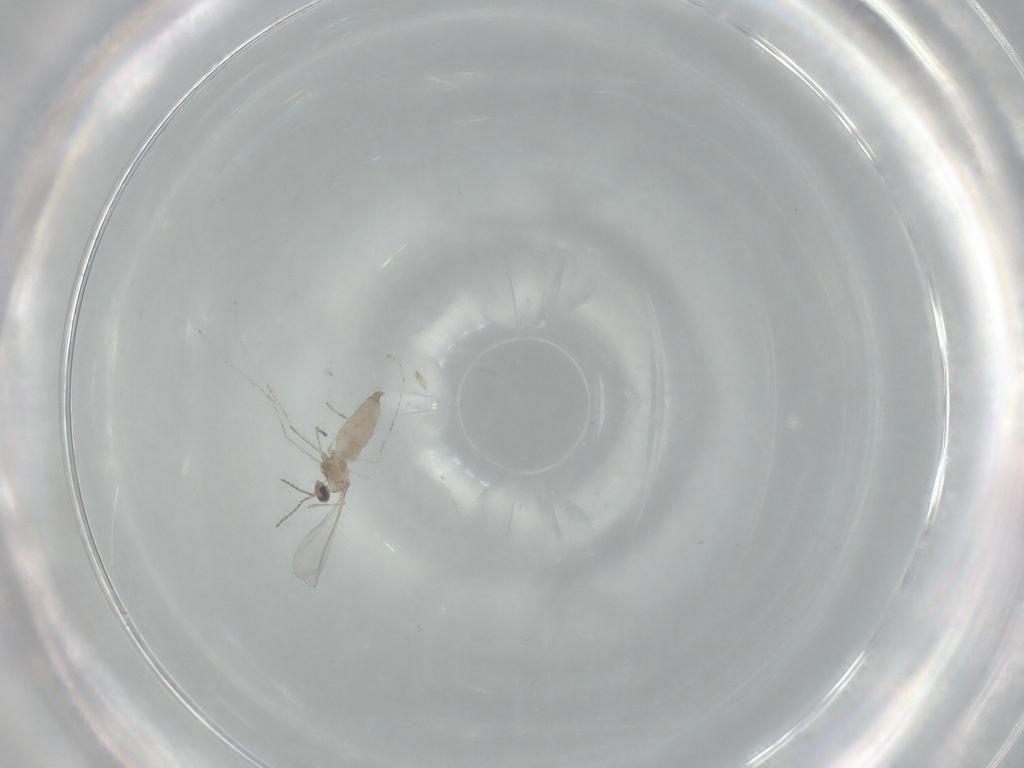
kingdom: Animalia
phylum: Arthropoda
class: Insecta
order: Diptera
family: Cecidomyiidae
